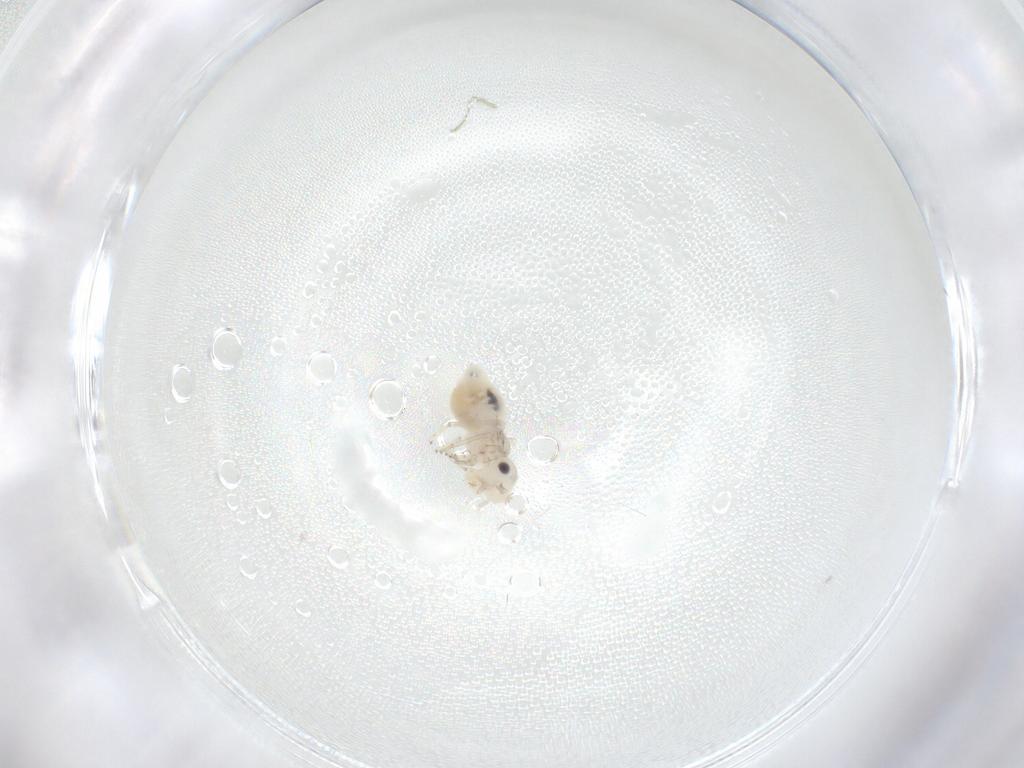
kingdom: Animalia
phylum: Arthropoda
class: Insecta
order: Psocodea
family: Caeciliusidae
